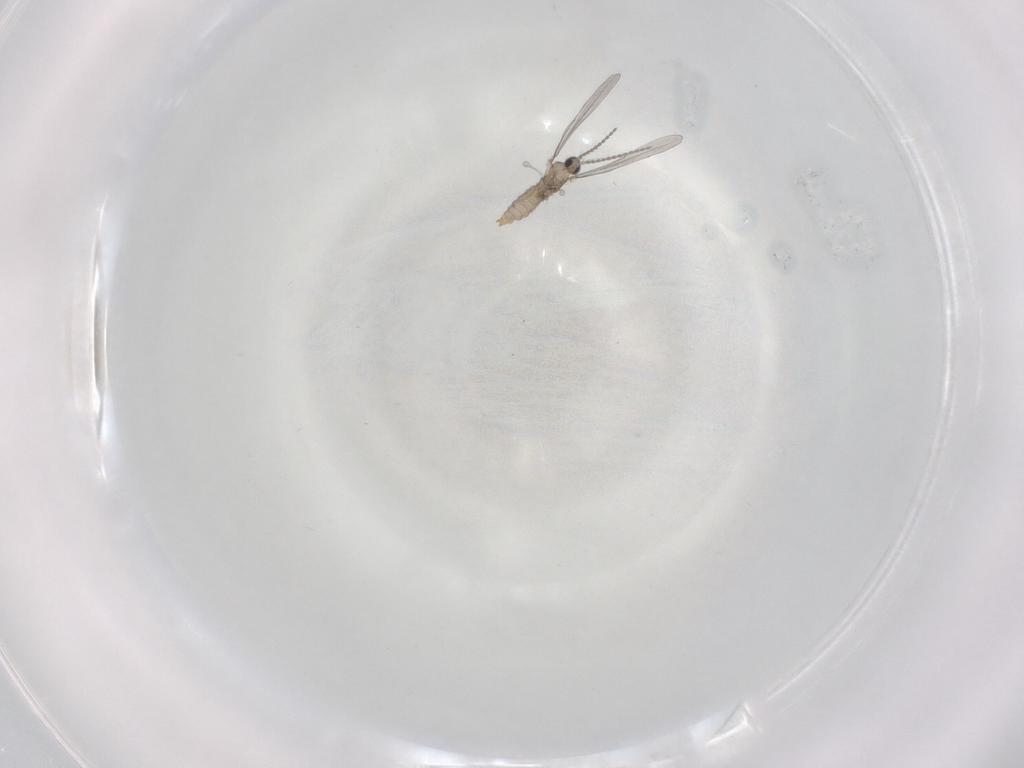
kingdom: Animalia
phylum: Arthropoda
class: Insecta
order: Diptera
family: Cecidomyiidae
